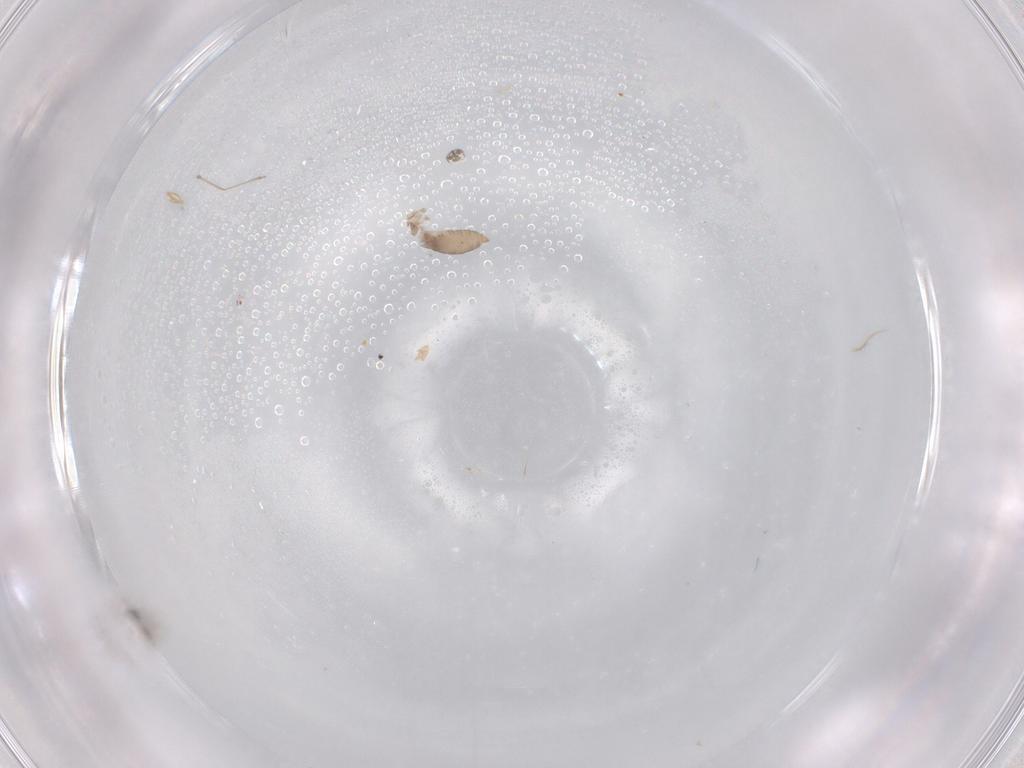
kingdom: Animalia
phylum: Arthropoda
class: Insecta
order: Diptera
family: Cecidomyiidae
